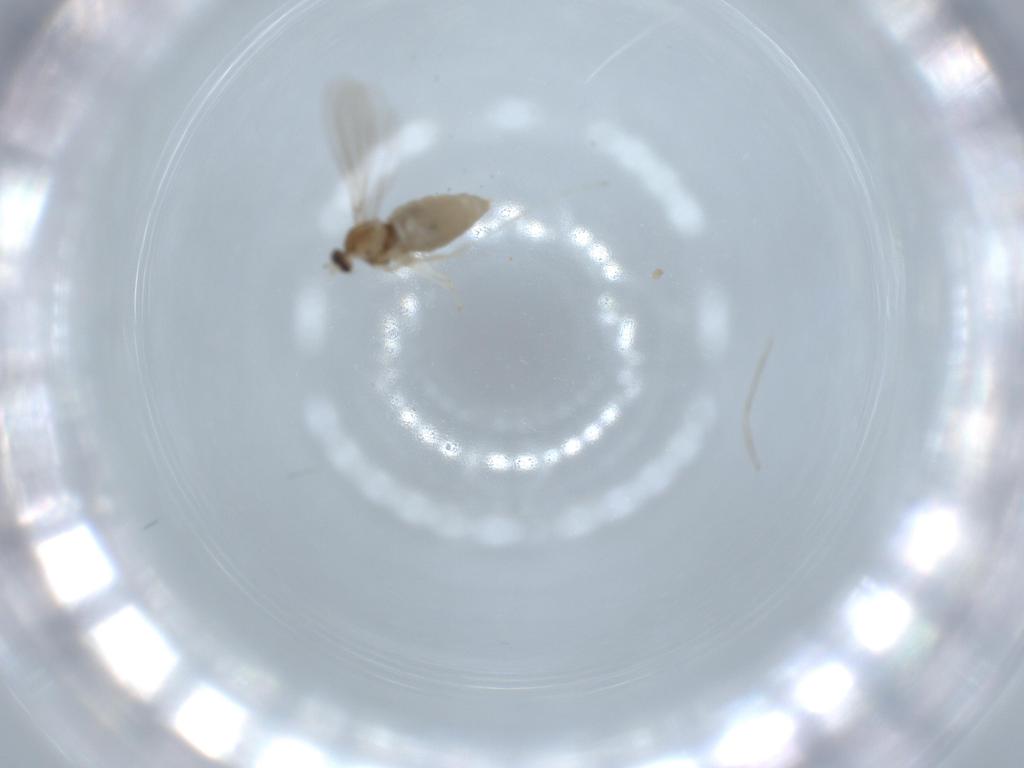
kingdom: Animalia
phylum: Arthropoda
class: Insecta
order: Diptera
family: Cecidomyiidae
